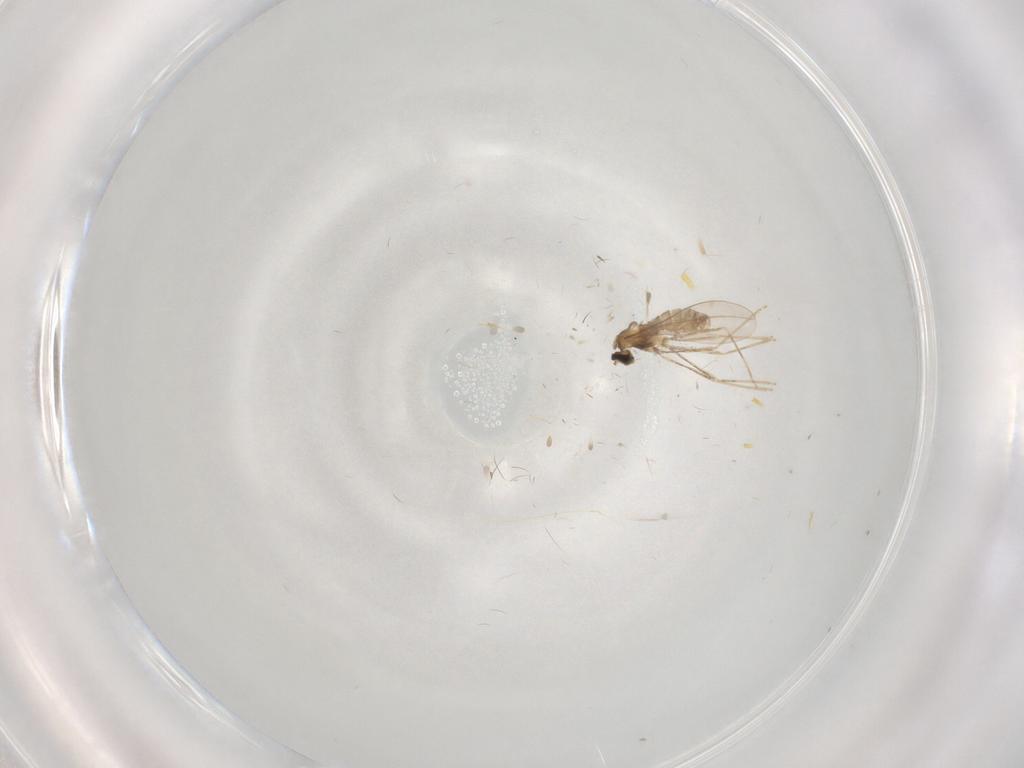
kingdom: Animalia
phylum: Arthropoda
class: Insecta
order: Diptera
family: Cecidomyiidae
